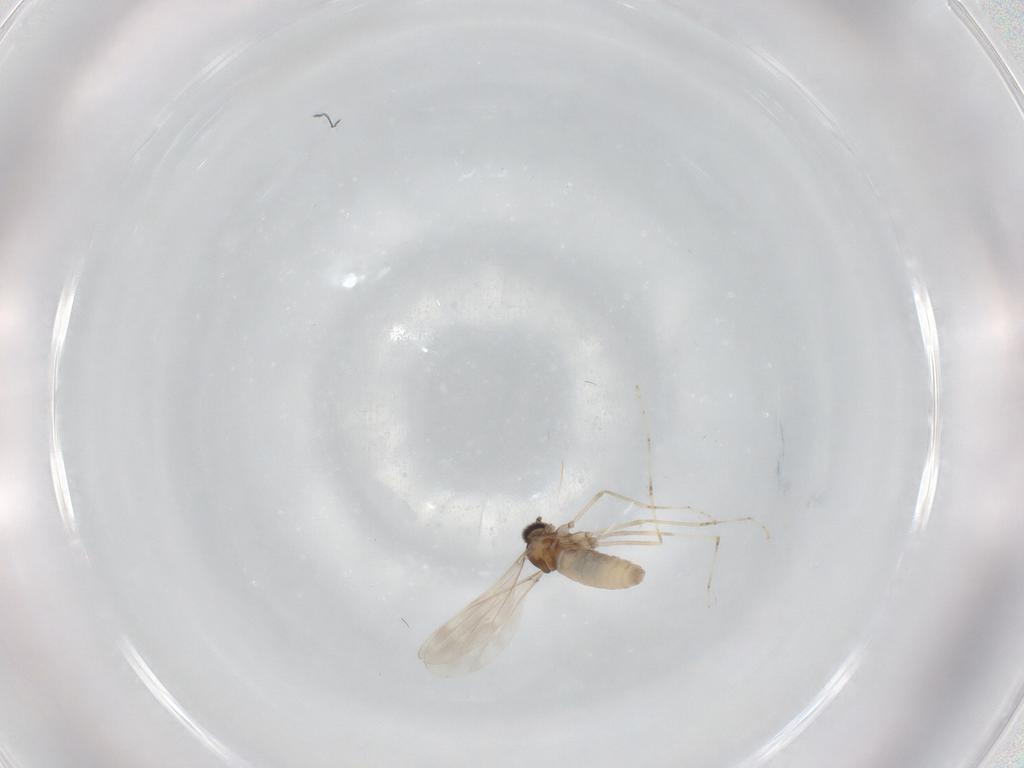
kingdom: Animalia
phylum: Arthropoda
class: Insecta
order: Diptera
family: Cecidomyiidae
